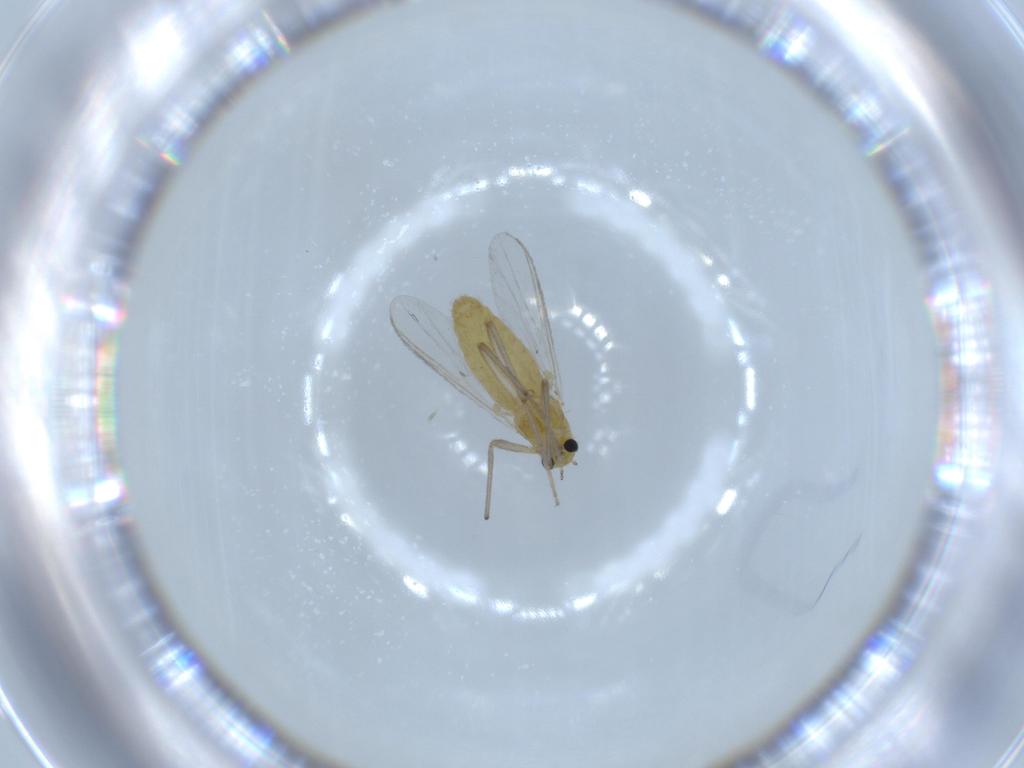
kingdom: Animalia
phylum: Arthropoda
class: Insecta
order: Diptera
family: Chironomidae
